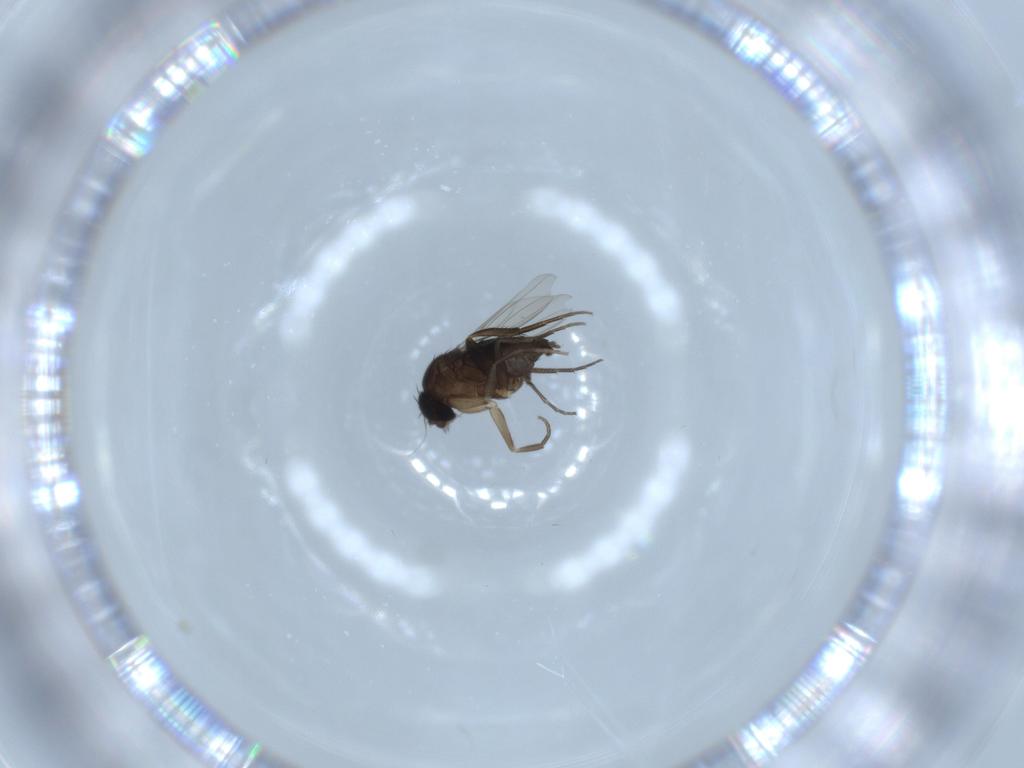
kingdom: Animalia
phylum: Arthropoda
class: Insecta
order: Diptera
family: Phoridae
